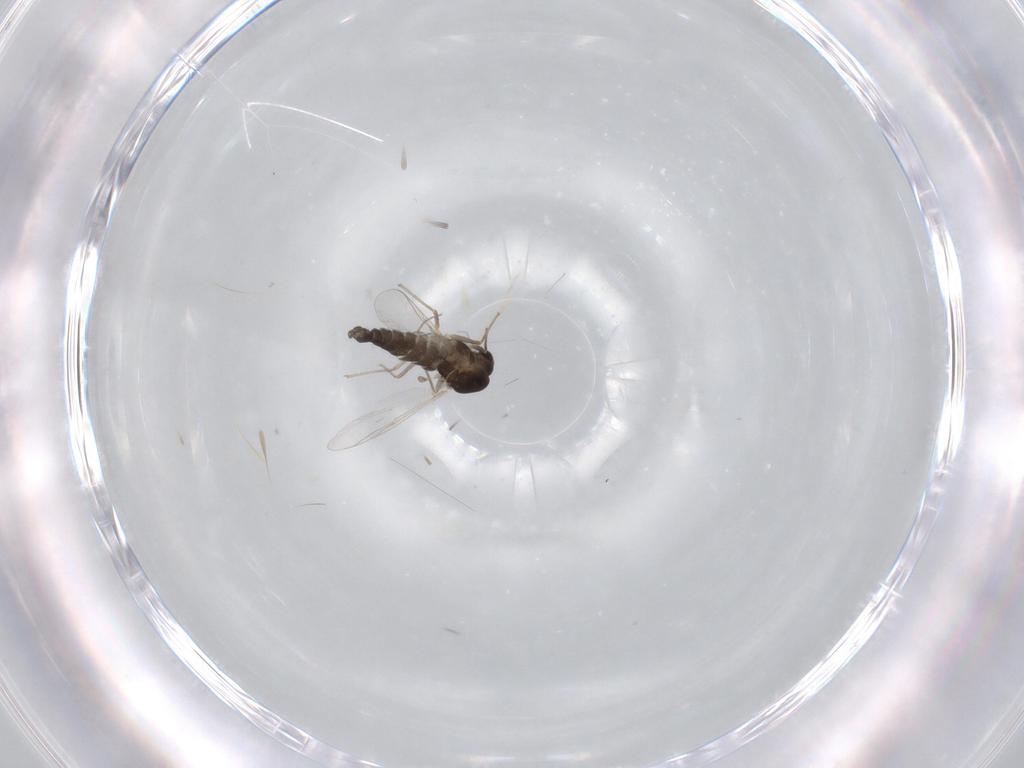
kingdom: Animalia
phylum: Arthropoda
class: Insecta
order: Diptera
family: Chironomidae
